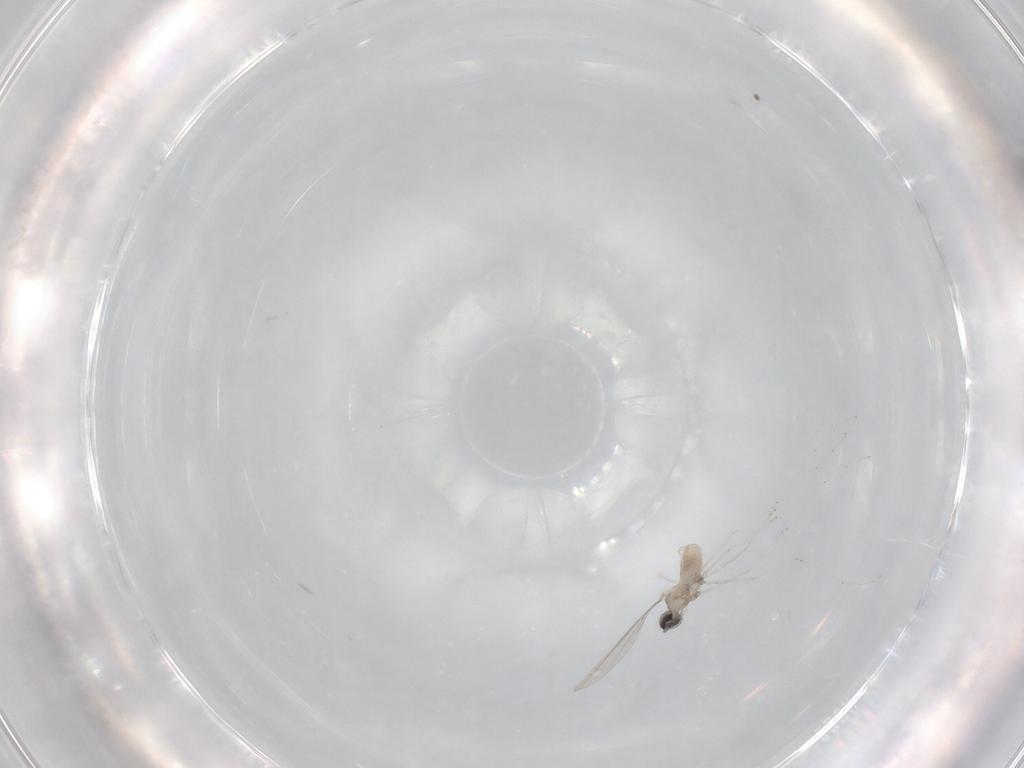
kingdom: Animalia
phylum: Arthropoda
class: Insecta
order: Diptera
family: Cecidomyiidae
